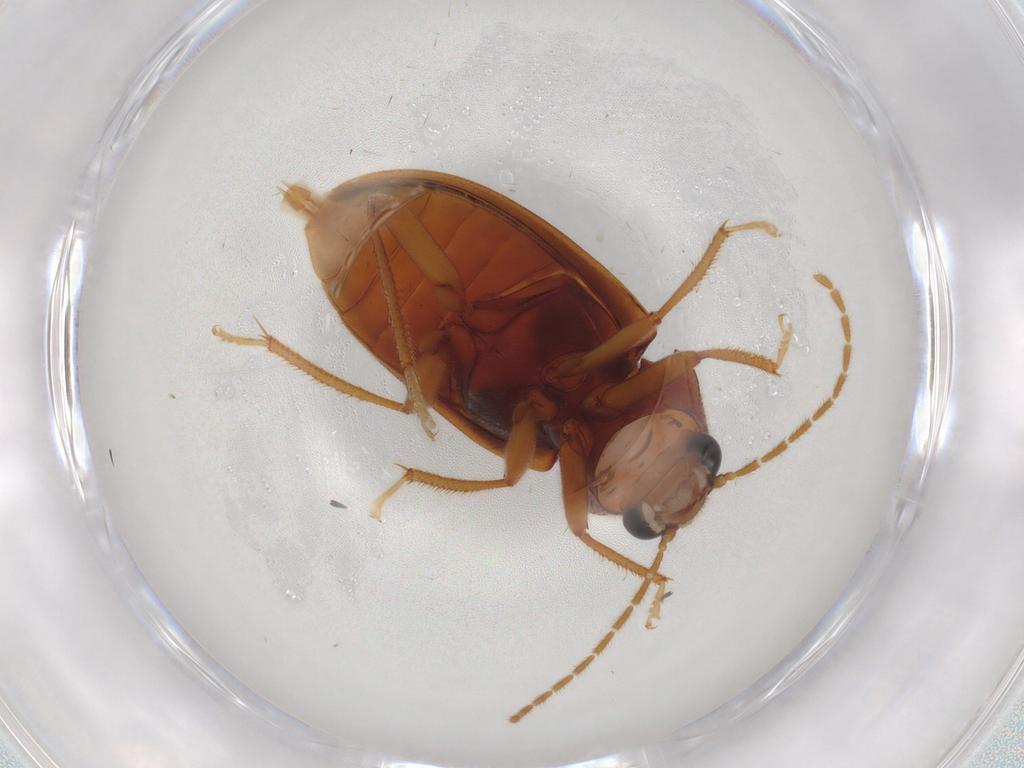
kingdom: Animalia
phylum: Arthropoda
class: Insecta
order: Coleoptera
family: Ptilodactylidae
